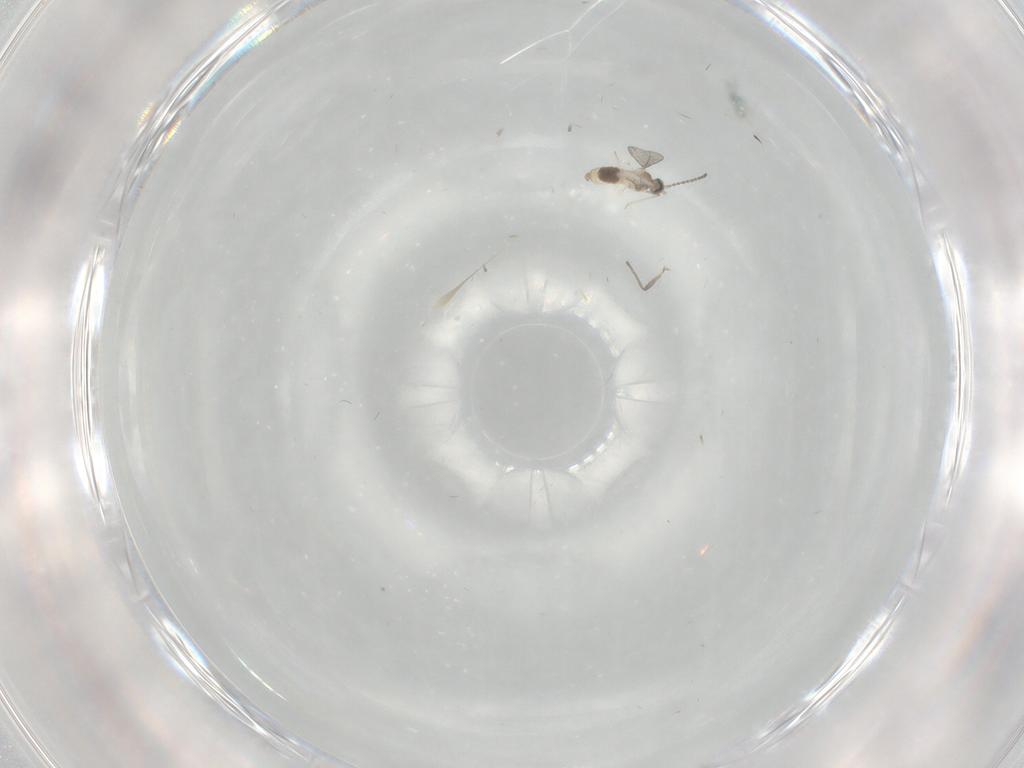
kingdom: Animalia
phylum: Arthropoda
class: Insecta
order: Diptera
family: Cecidomyiidae
